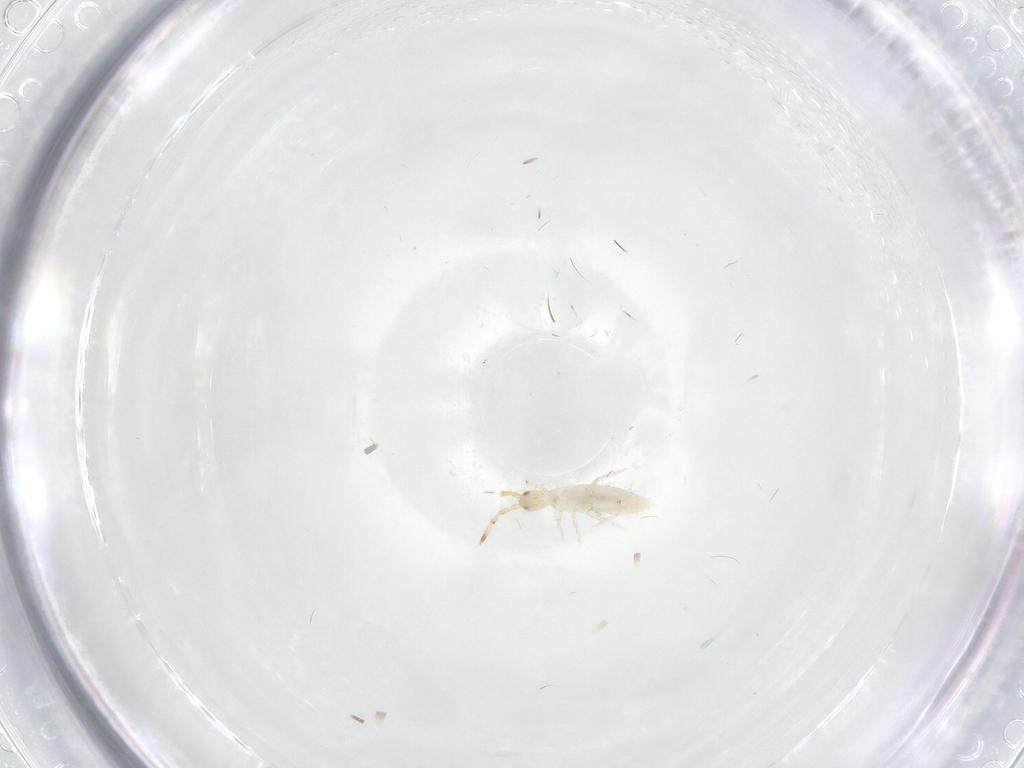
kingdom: Animalia
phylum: Arthropoda
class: Collembola
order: Entomobryomorpha
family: Entomobryidae
